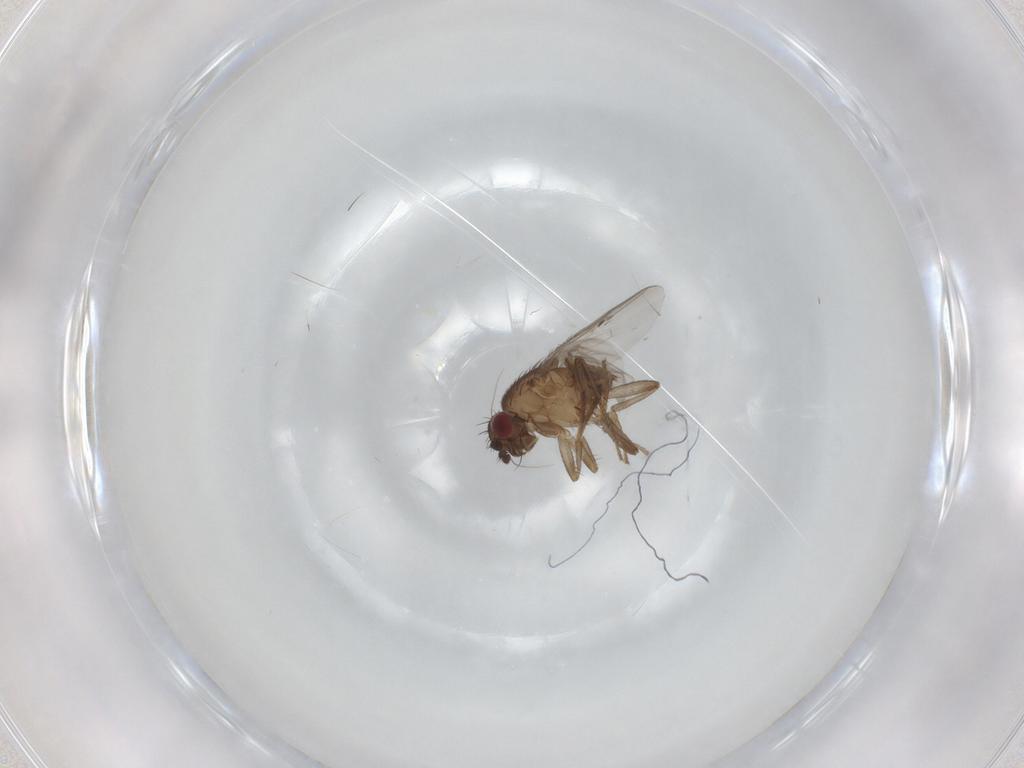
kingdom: Animalia
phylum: Arthropoda
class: Insecta
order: Diptera
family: Sphaeroceridae
